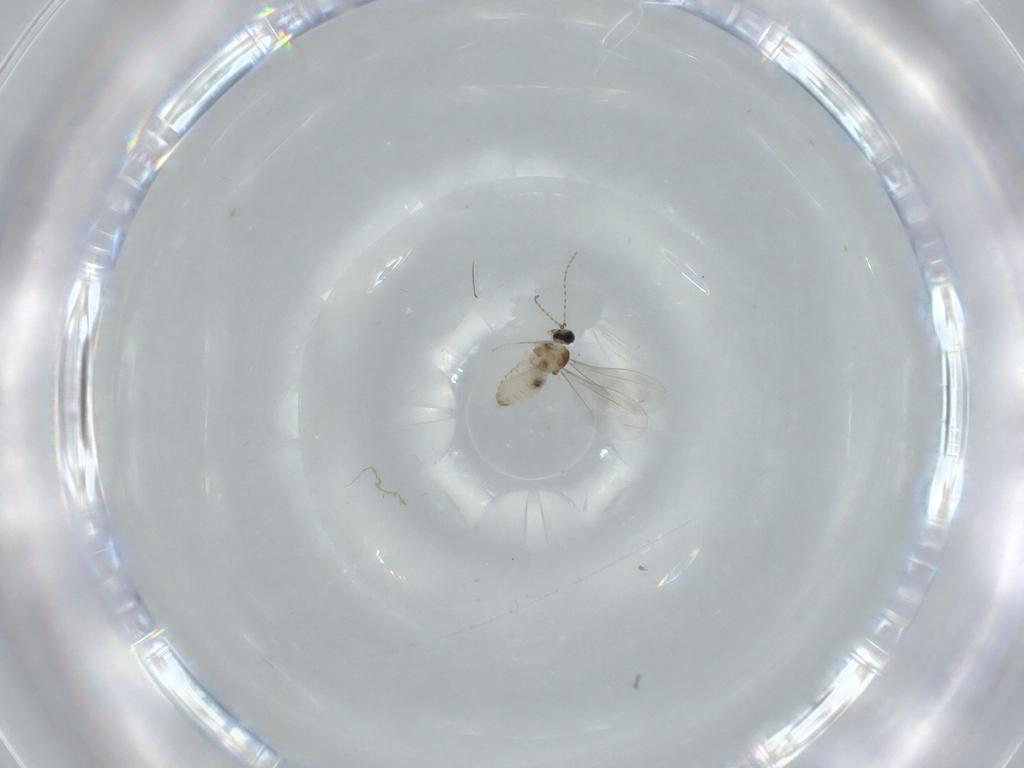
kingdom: Animalia
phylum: Arthropoda
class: Insecta
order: Diptera
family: Cecidomyiidae
